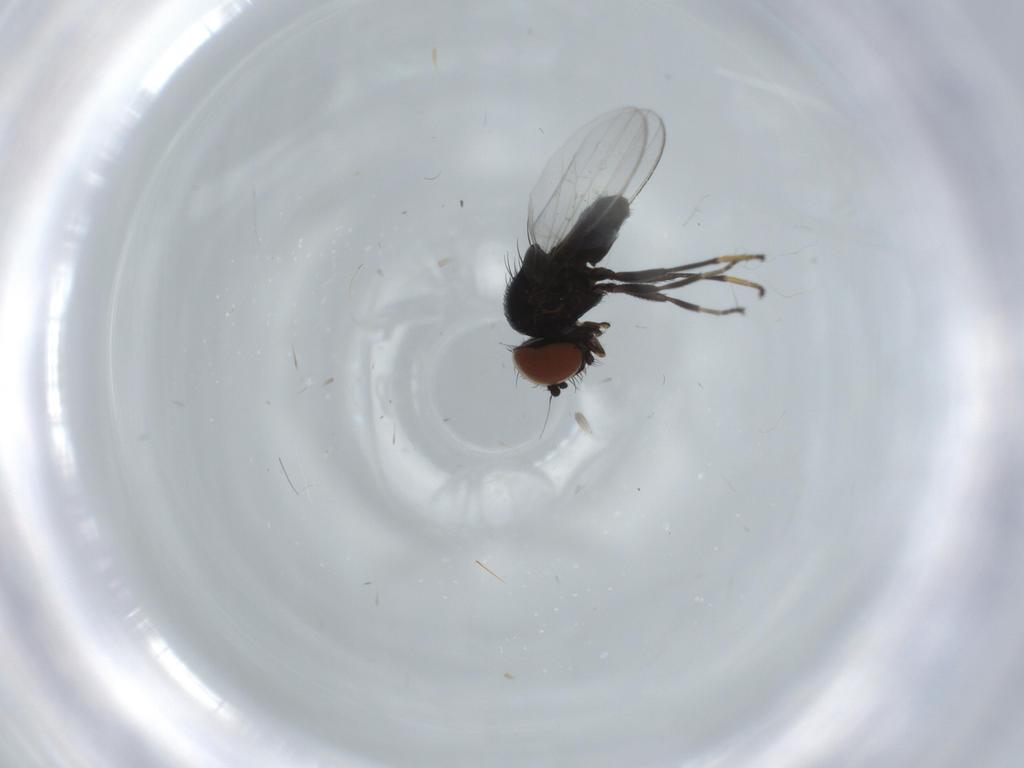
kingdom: Animalia
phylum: Arthropoda
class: Insecta
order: Diptera
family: Milichiidae
